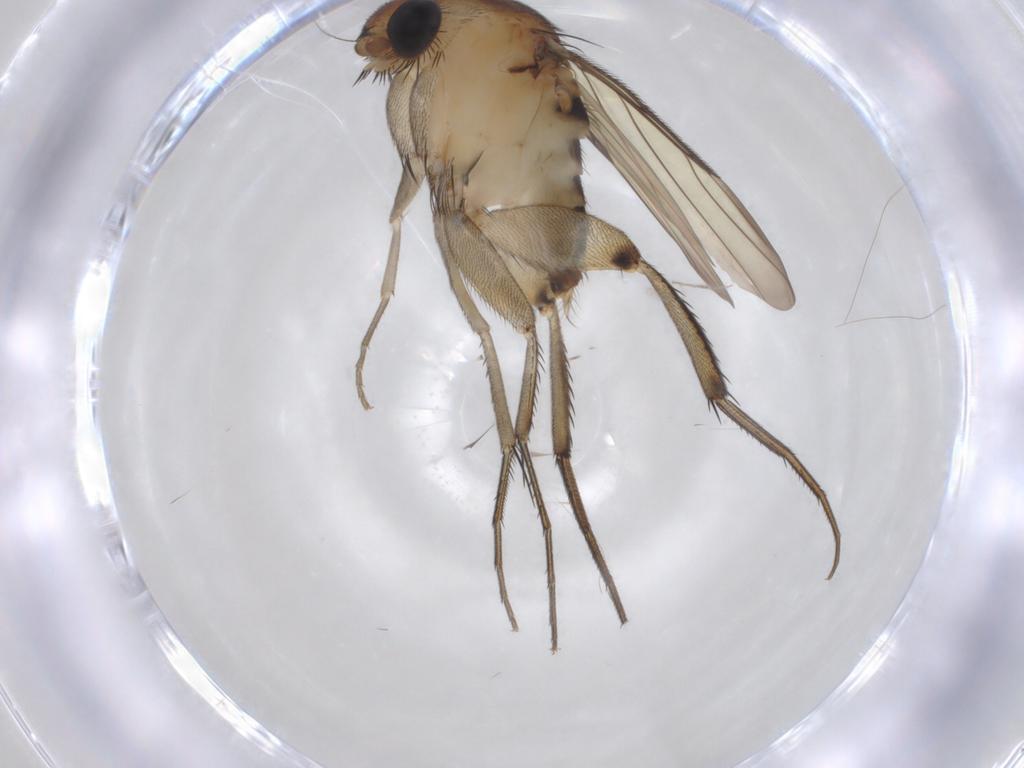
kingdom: Animalia
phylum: Arthropoda
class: Insecta
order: Diptera
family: Phoridae
